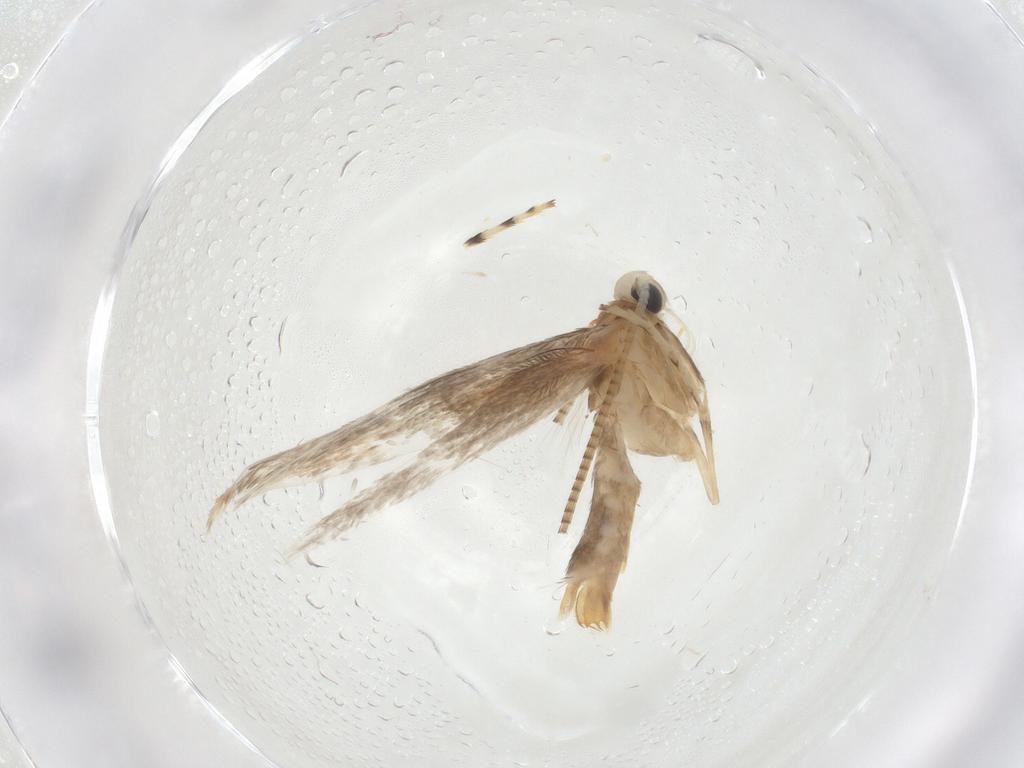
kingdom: Animalia
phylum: Arthropoda
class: Insecta
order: Lepidoptera
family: Gracillariidae
